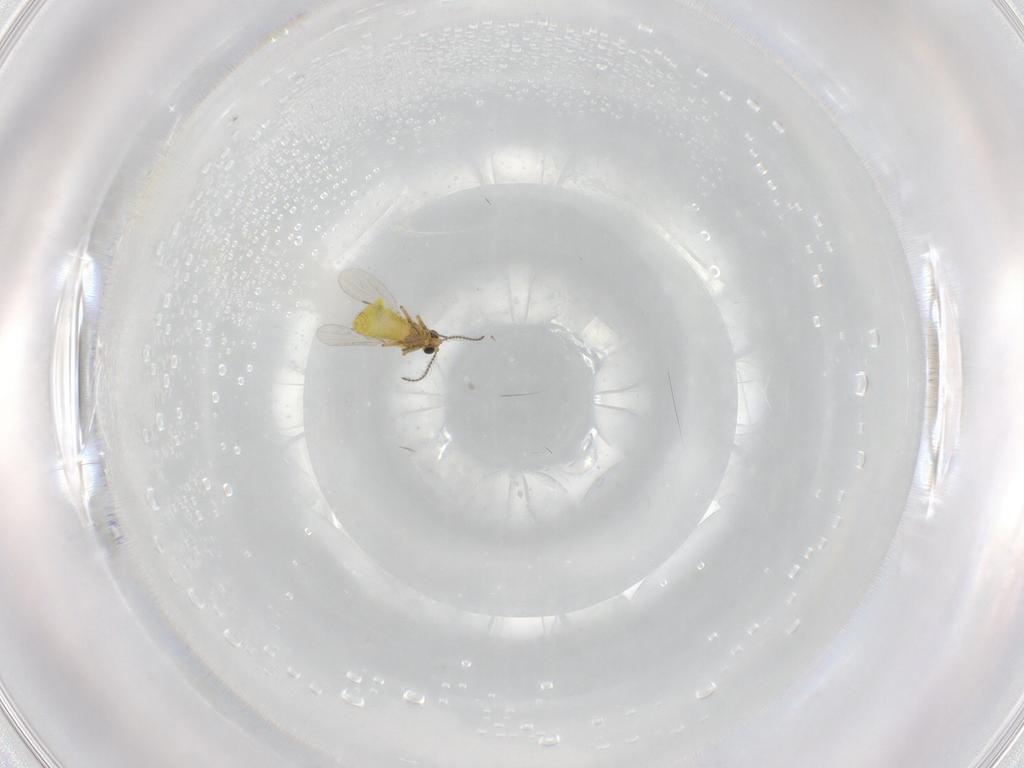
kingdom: Animalia
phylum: Arthropoda
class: Insecta
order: Diptera
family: Ceratopogonidae
